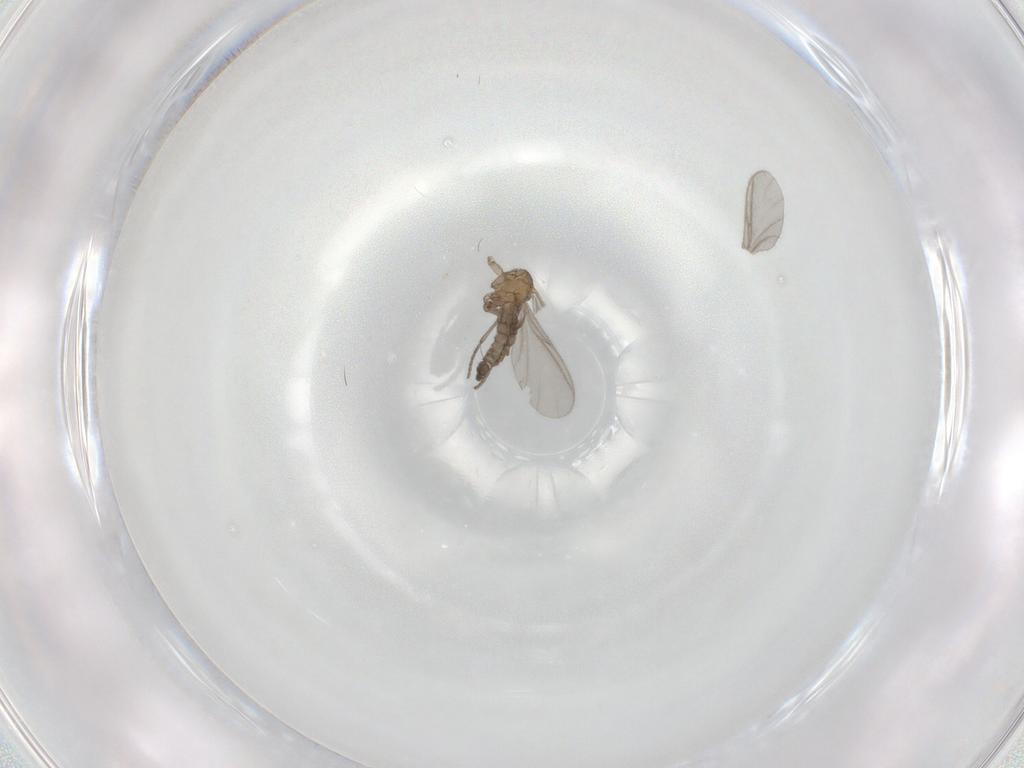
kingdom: Animalia
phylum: Arthropoda
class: Insecta
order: Diptera
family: Sciaridae
